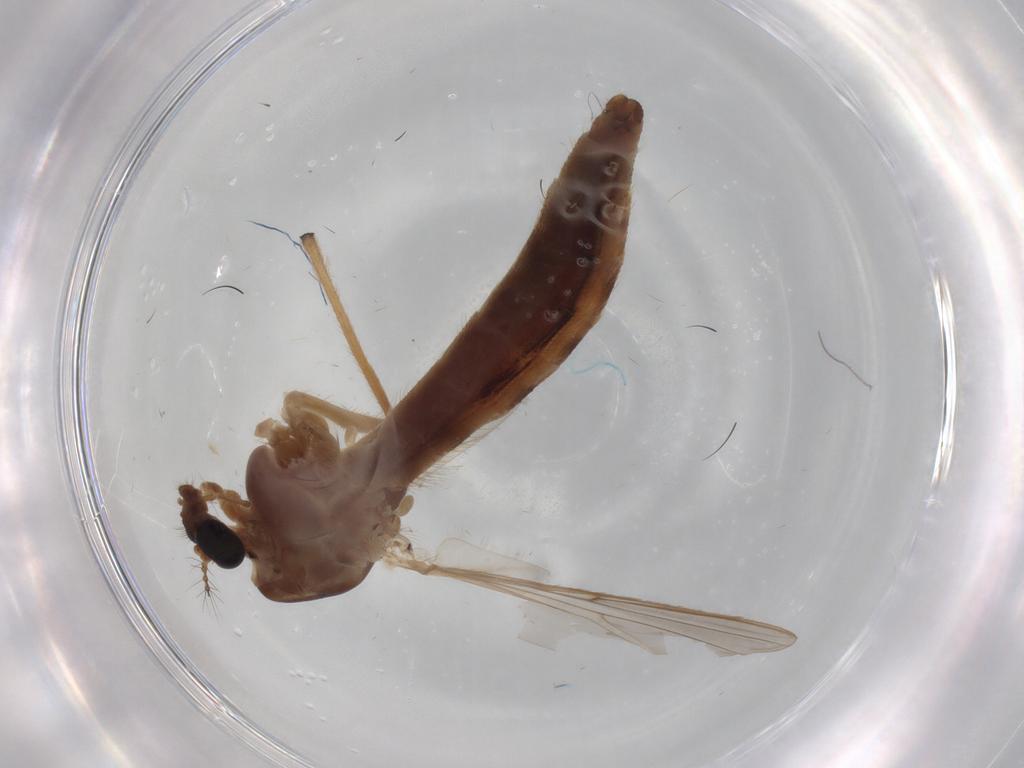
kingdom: Animalia
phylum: Arthropoda
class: Insecta
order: Diptera
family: Chironomidae
